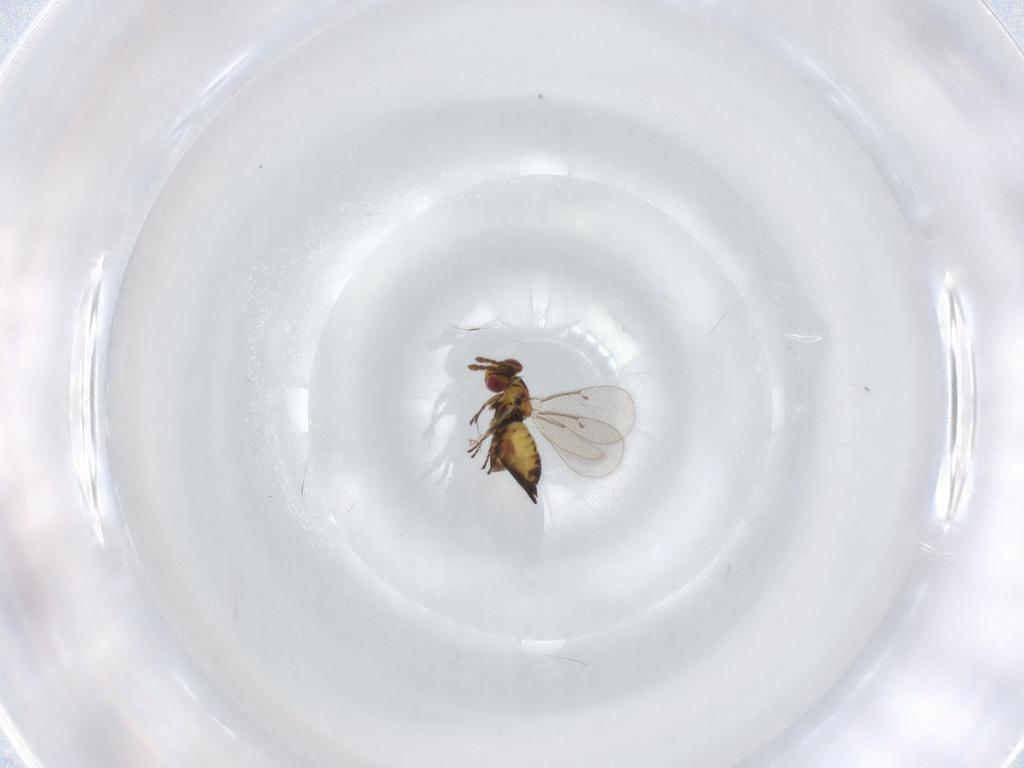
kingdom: Animalia
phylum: Arthropoda
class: Insecta
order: Hymenoptera
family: Eulophidae
